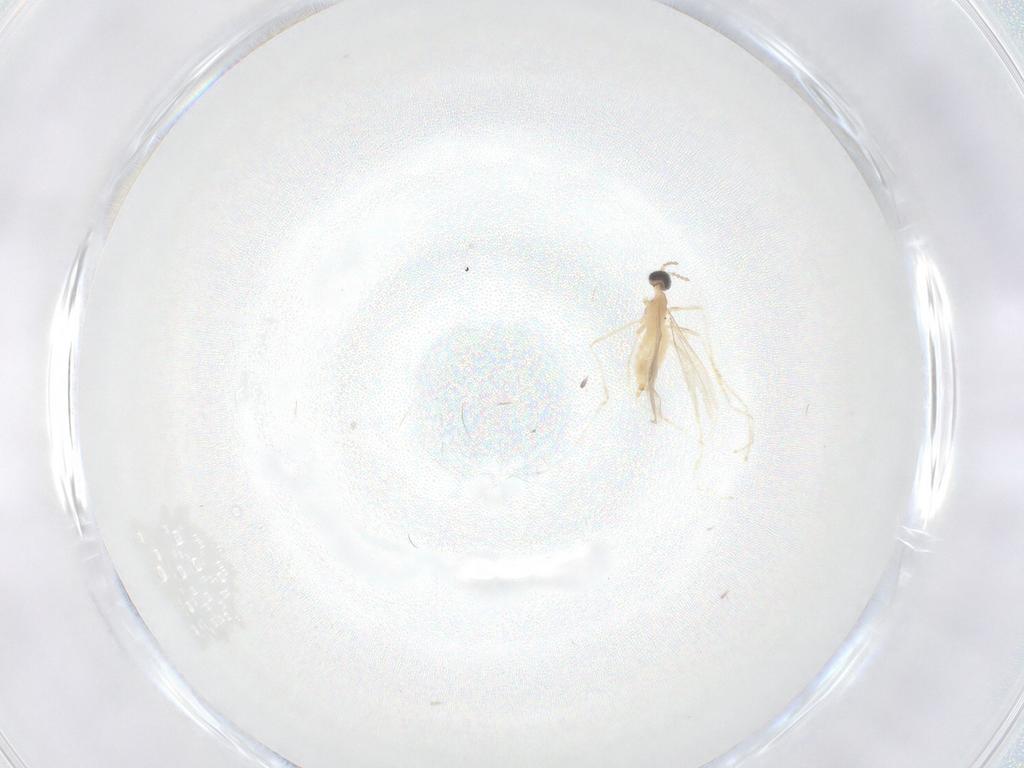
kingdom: Animalia
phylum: Arthropoda
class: Insecta
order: Diptera
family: Cecidomyiidae
